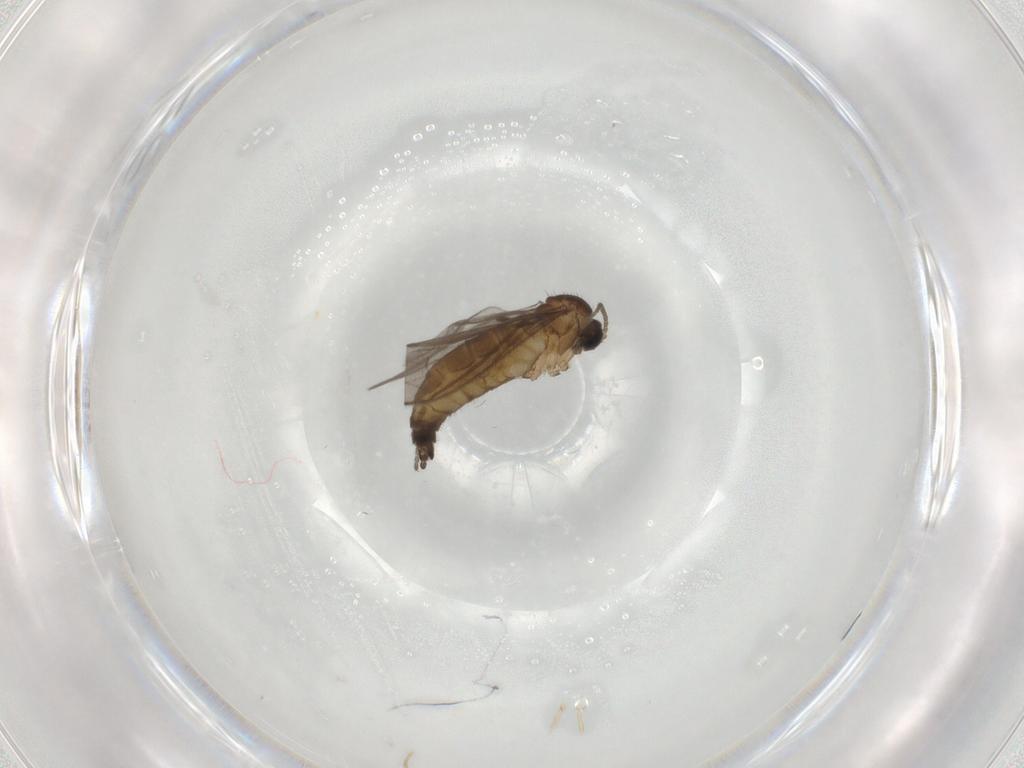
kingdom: Animalia
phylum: Arthropoda
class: Insecta
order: Diptera
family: Sciaridae
